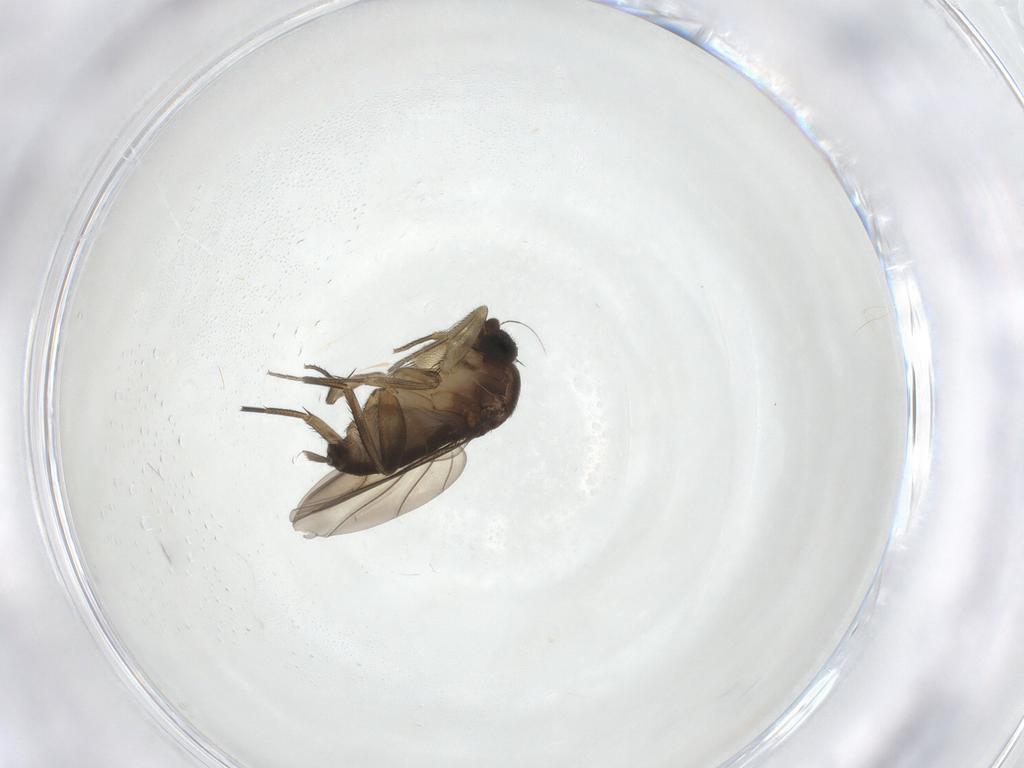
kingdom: Animalia
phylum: Arthropoda
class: Insecta
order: Diptera
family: Phoridae
